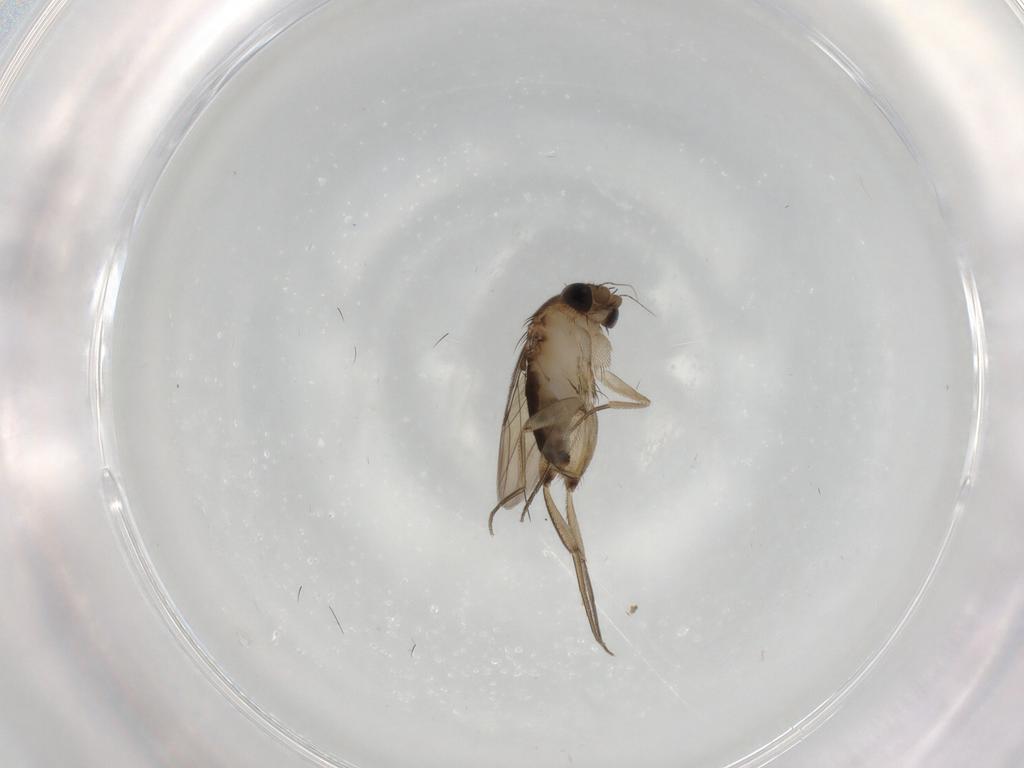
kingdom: Animalia
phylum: Arthropoda
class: Insecta
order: Diptera
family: Phoridae
